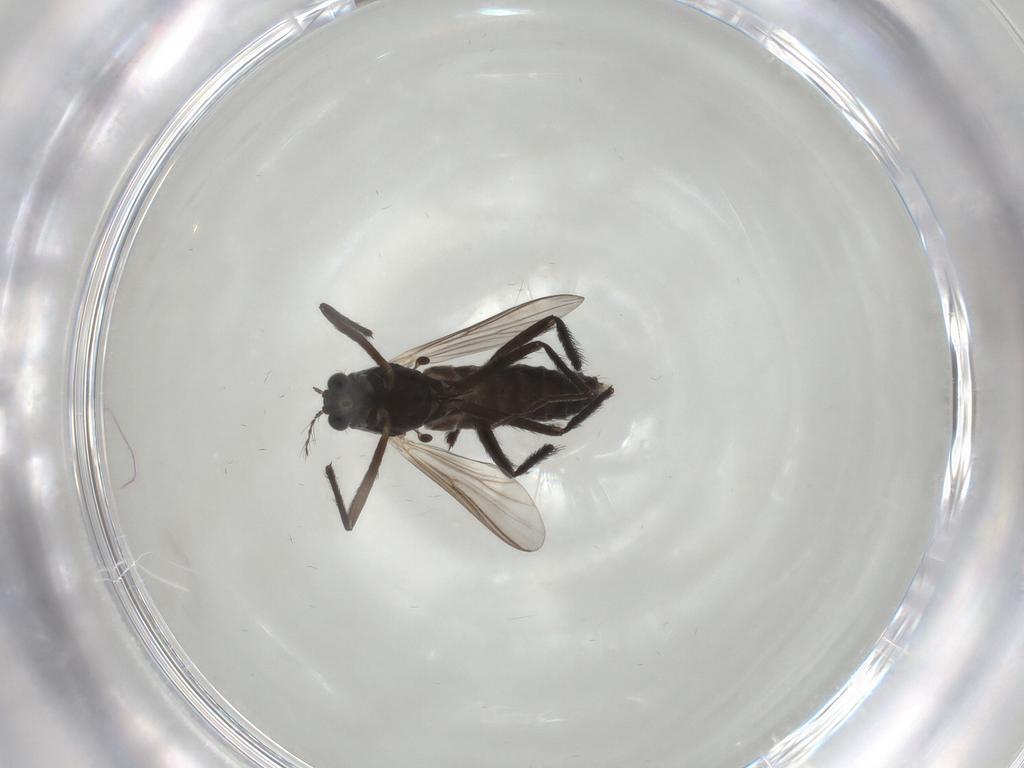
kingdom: Animalia
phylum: Arthropoda
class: Insecta
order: Diptera
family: Chironomidae
